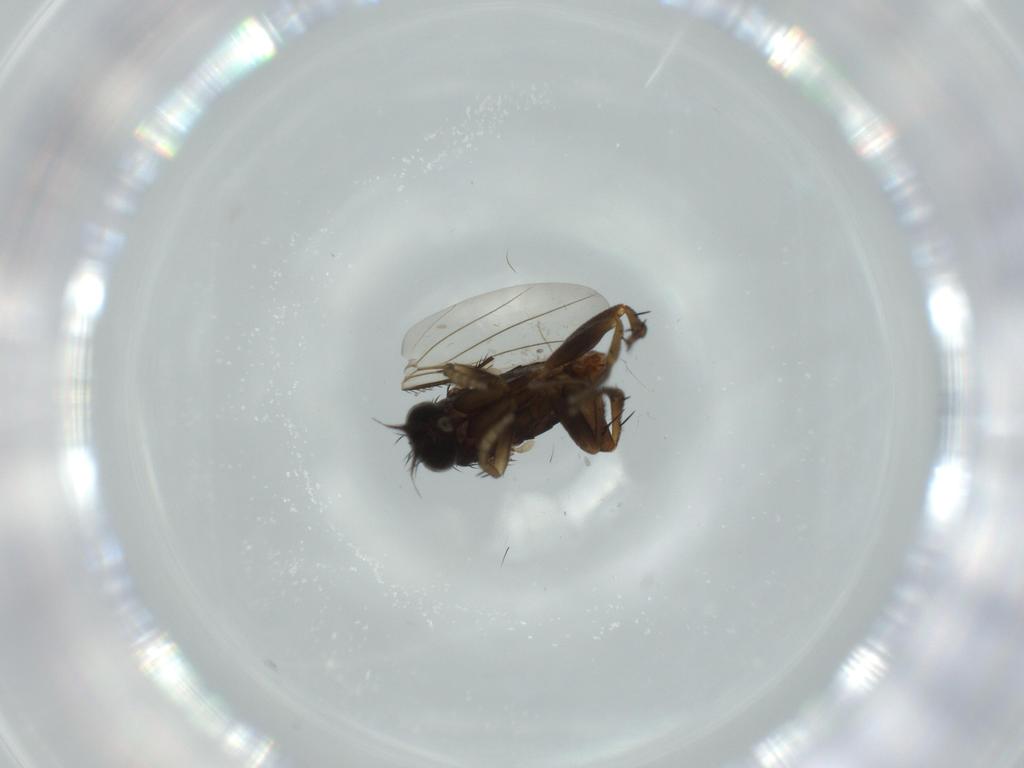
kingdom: Animalia
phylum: Arthropoda
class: Insecta
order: Diptera
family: Phoridae
